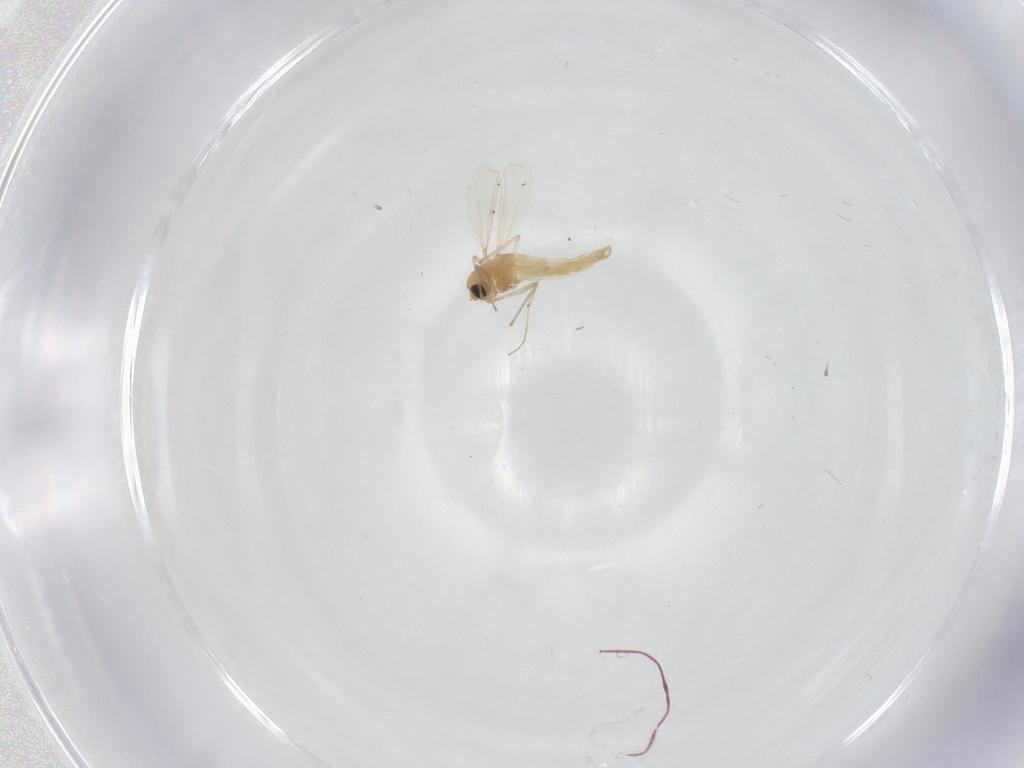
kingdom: Animalia
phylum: Arthropoda
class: Insecta
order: Diptera
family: Chironomidae
